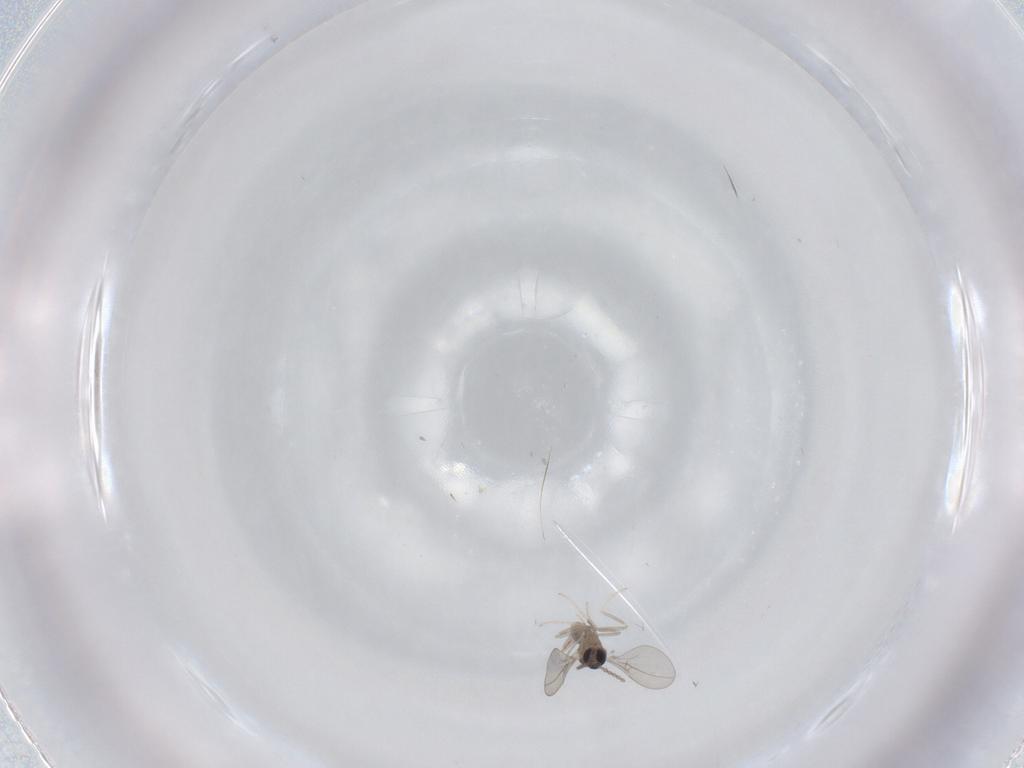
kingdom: Animalia
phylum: Arthropoda
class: Insecta
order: Diptera
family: Cecidomyiidae
